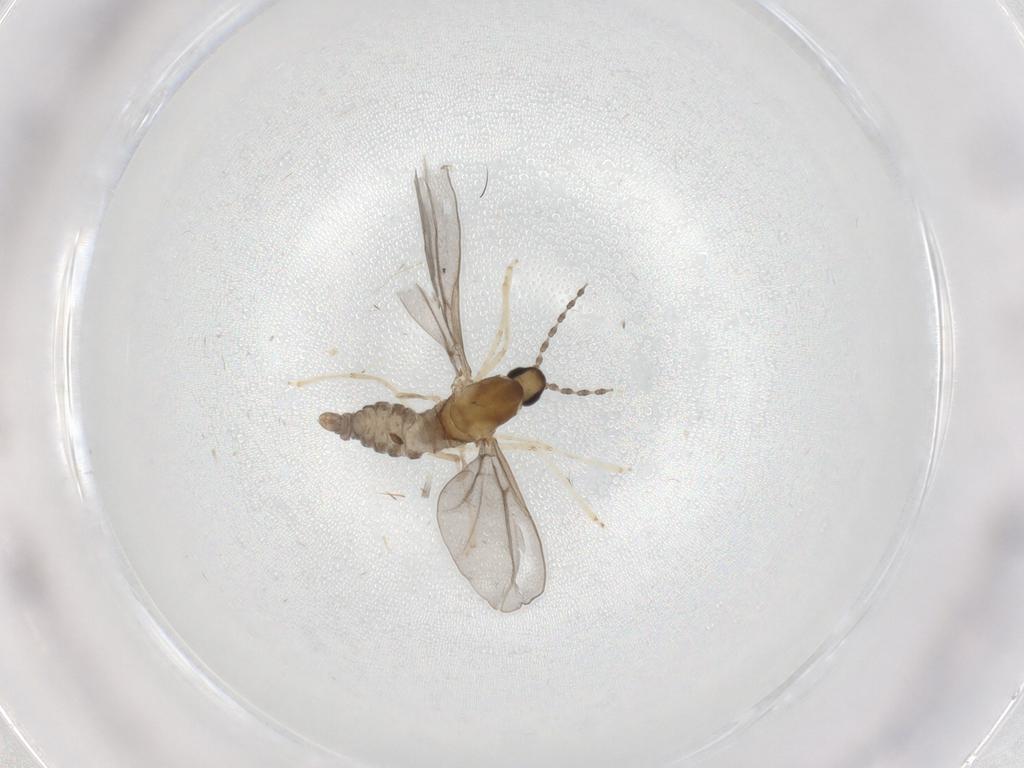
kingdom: Animalia
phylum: Arthropoda
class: Insecta
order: Diptera
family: Cecidomyiidae
